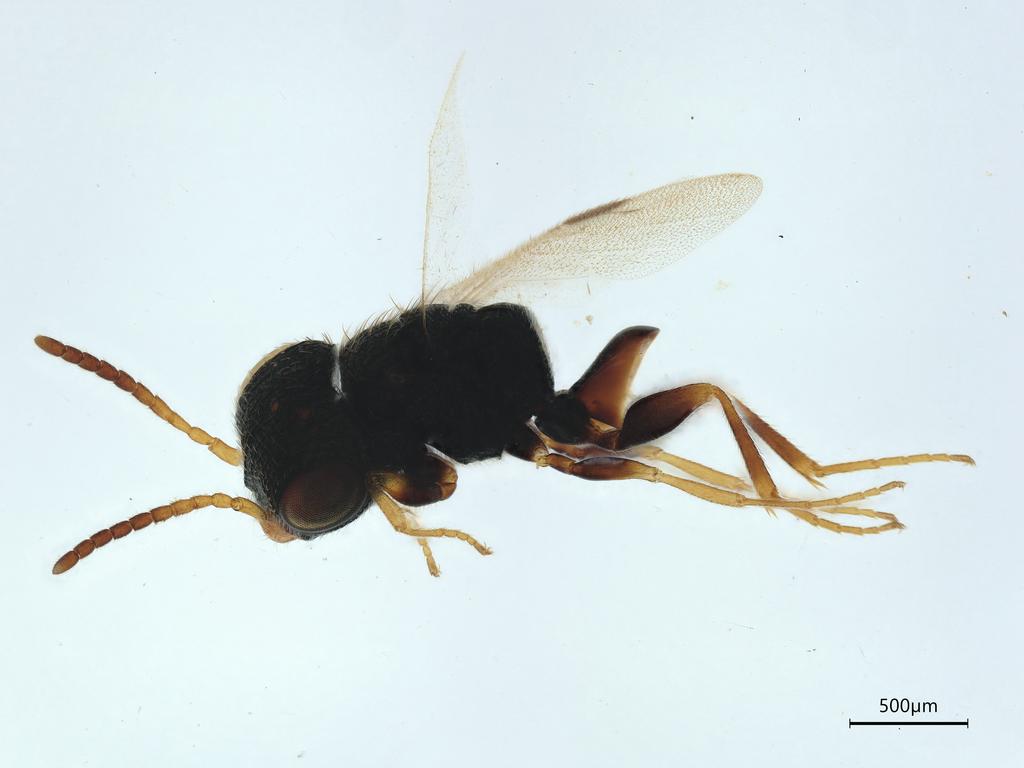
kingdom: Animalia
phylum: Arthropoda
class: Insecta
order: Hymenoptera
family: Dryinidae
